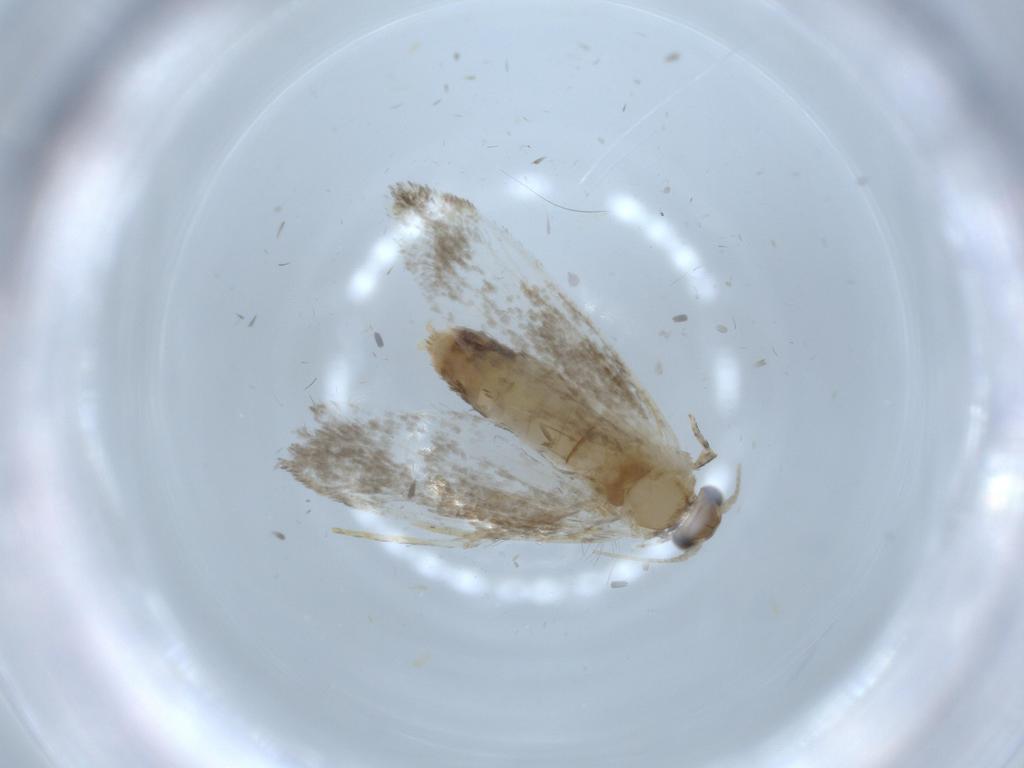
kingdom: Animalia
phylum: Arthropoda
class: Insecta
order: Lepidoptera
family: Tineidae
